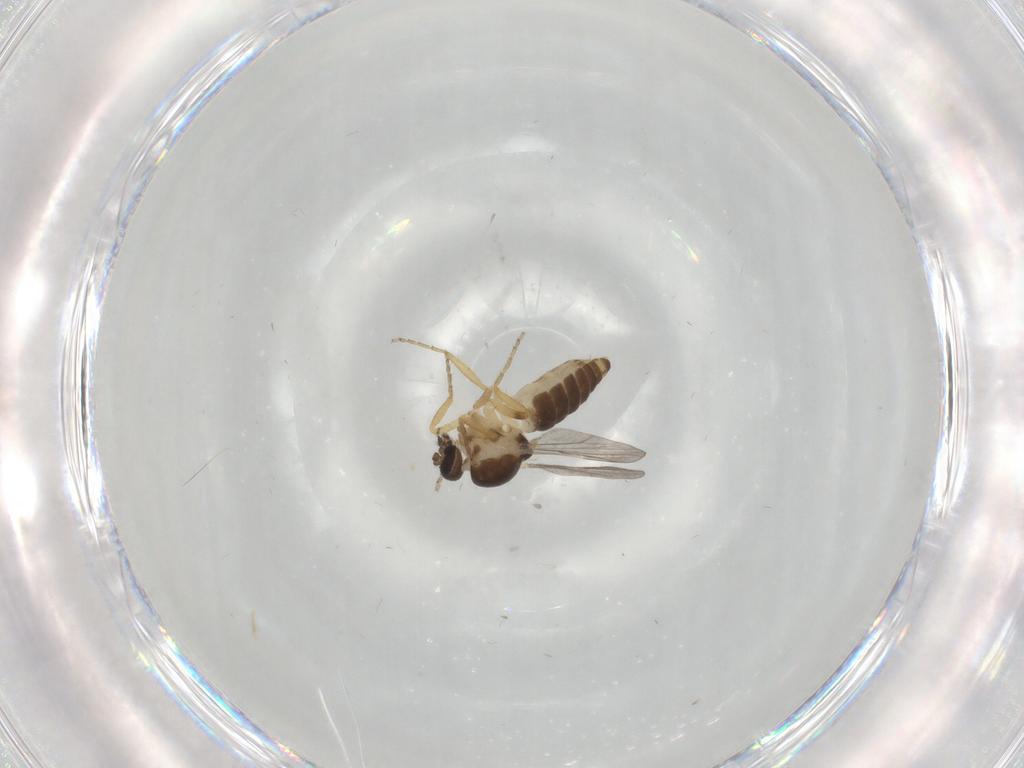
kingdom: Animalia
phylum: Arthropoda
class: Insecta
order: Diptera
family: Ceratopogonidae
